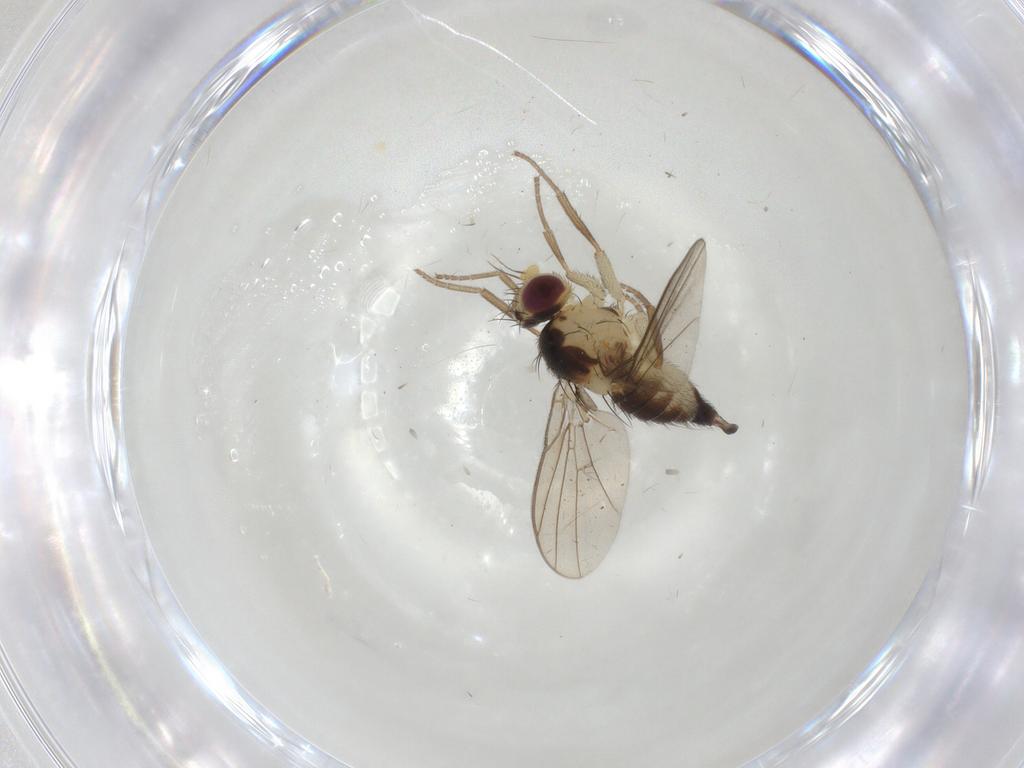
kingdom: Animalia
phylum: Arthropoda
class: Insecta
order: Diptera
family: Agromyzidae
